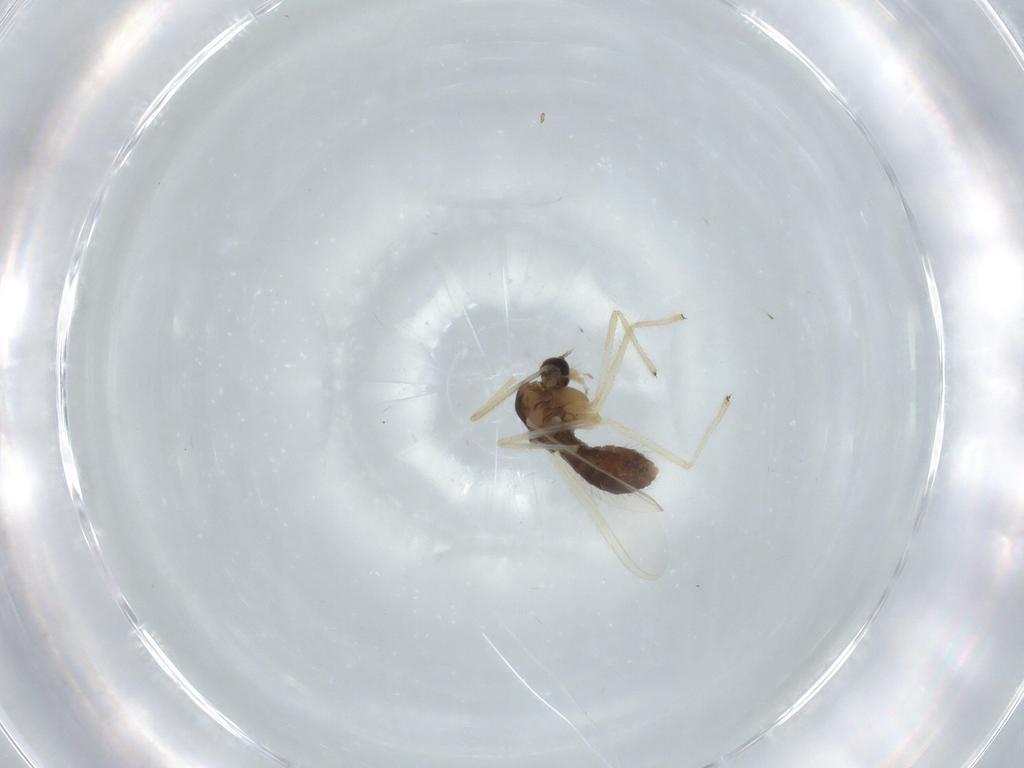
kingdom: Animalia
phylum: Arthropoda
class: Insecta
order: Diptera
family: Chironomidae
